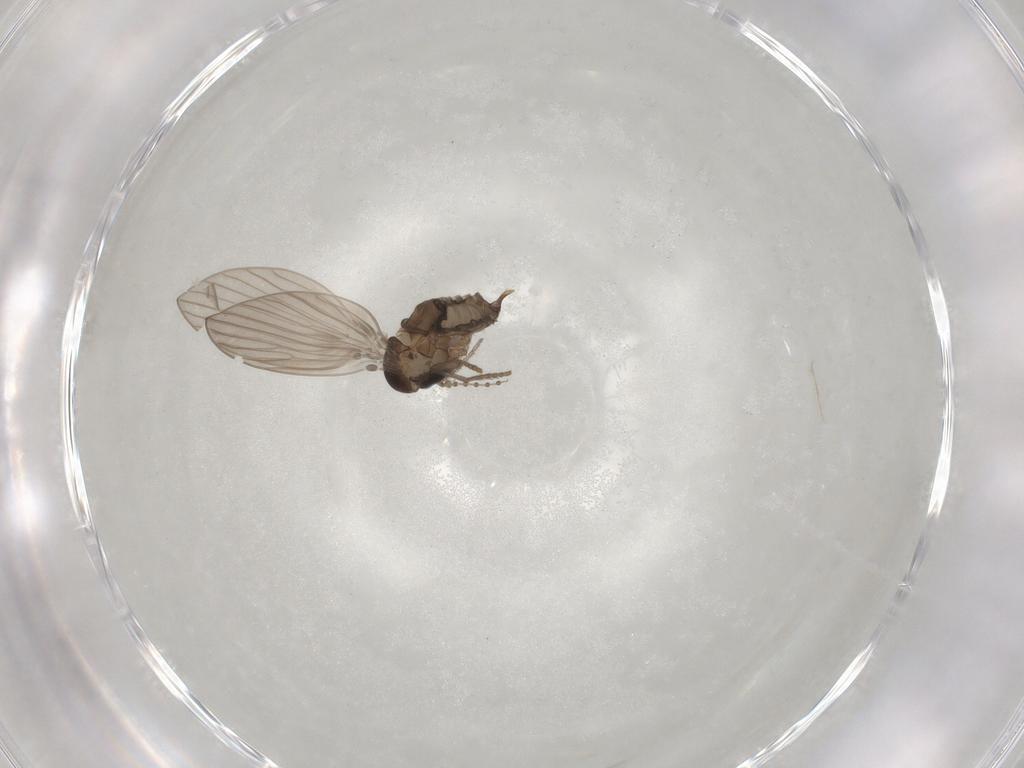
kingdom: Animalia
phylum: Arthropoda
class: Insecta
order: Diptera
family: Psychodidae
